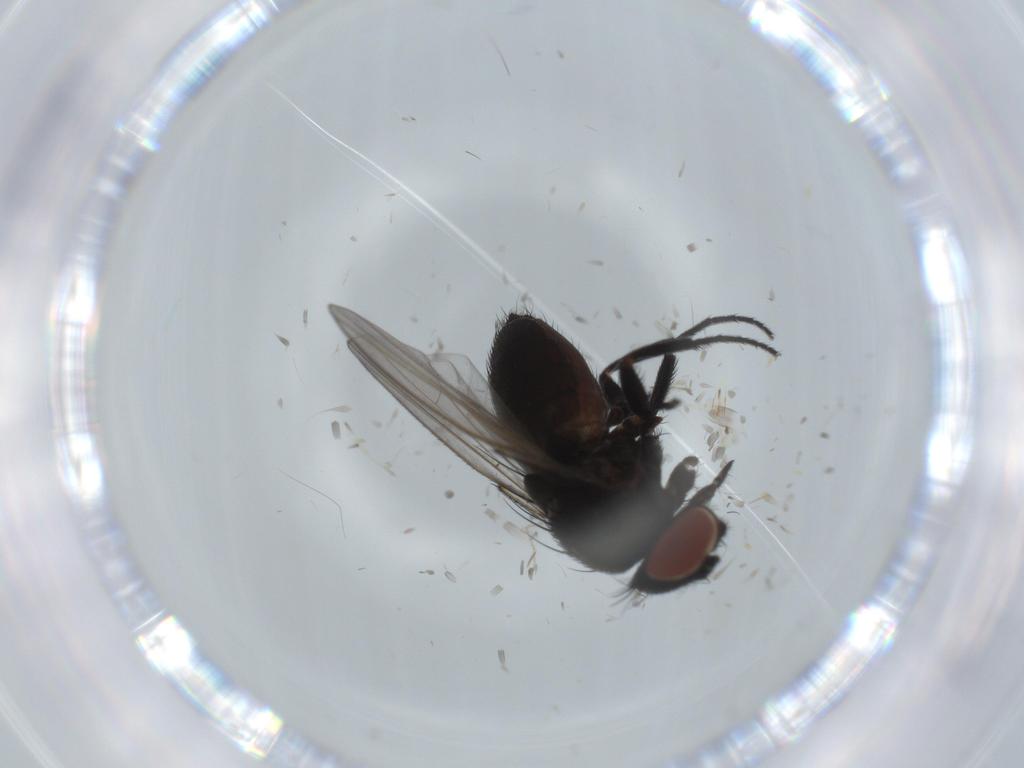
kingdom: Animalia
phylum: Arthropoda
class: Insecta
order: Diptera
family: Milichiidae
